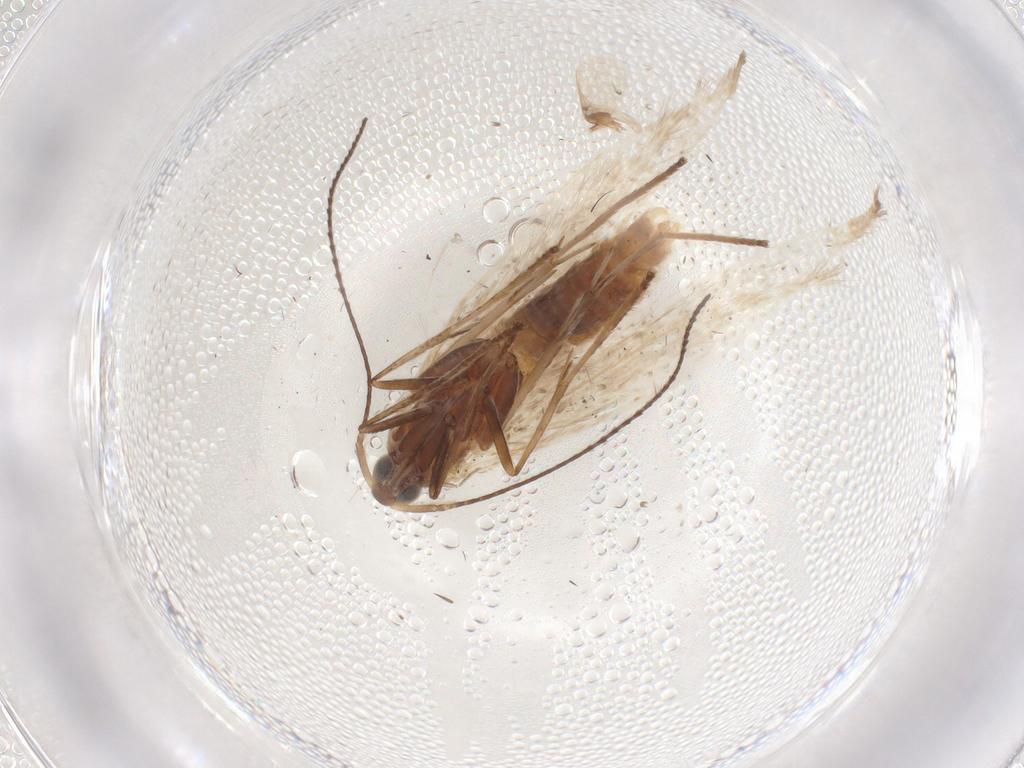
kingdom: Animalia
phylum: Arthropoda
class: Insecta
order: Lepidoptera
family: Coleophoridae
